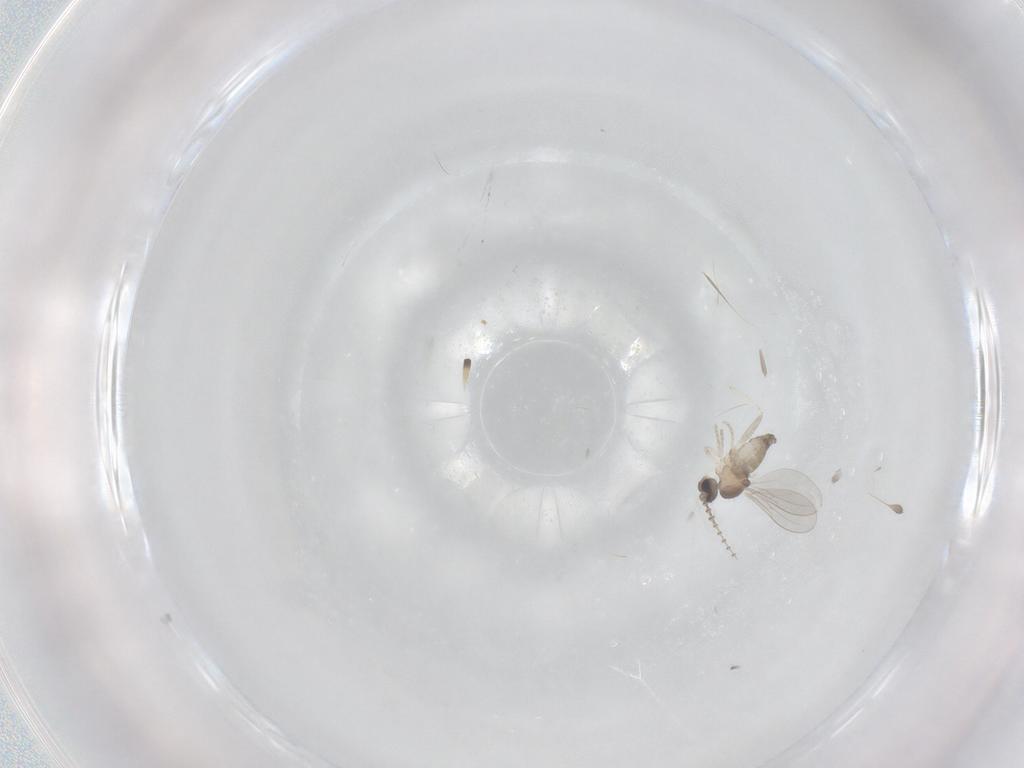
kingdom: Animalia
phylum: Arthropoda
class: Insecta
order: Diptera
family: Cecidomyiidae
